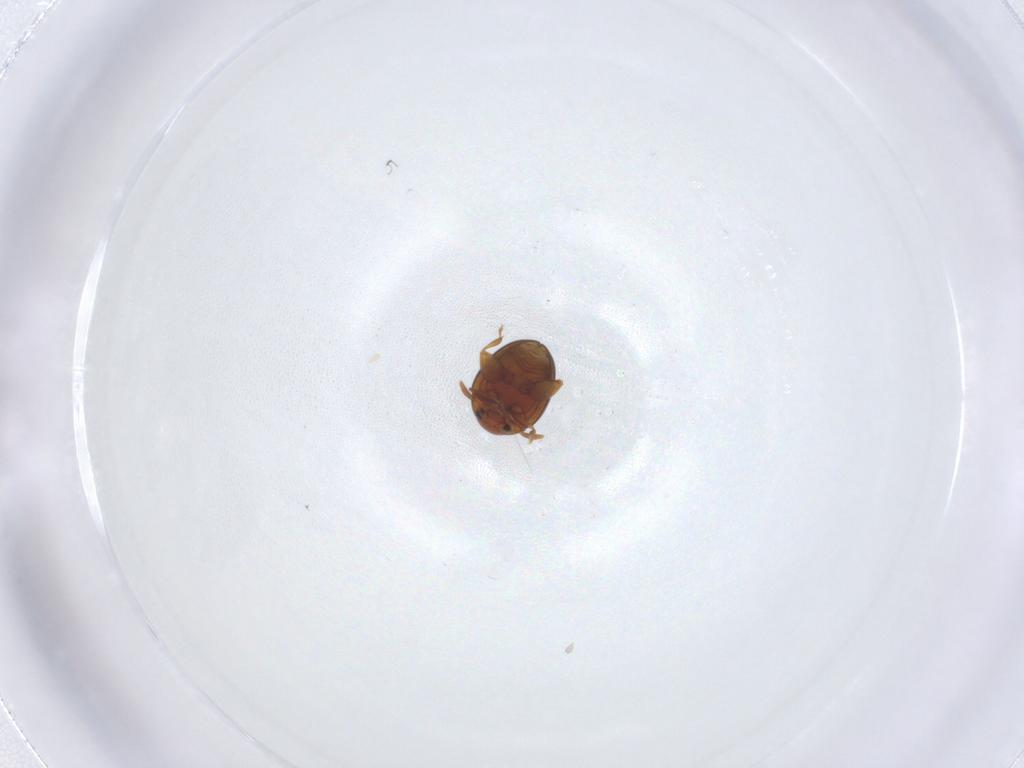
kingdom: Animalia
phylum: Arthropoda
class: Insecta
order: Coleoptera
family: Chrysomelidae
